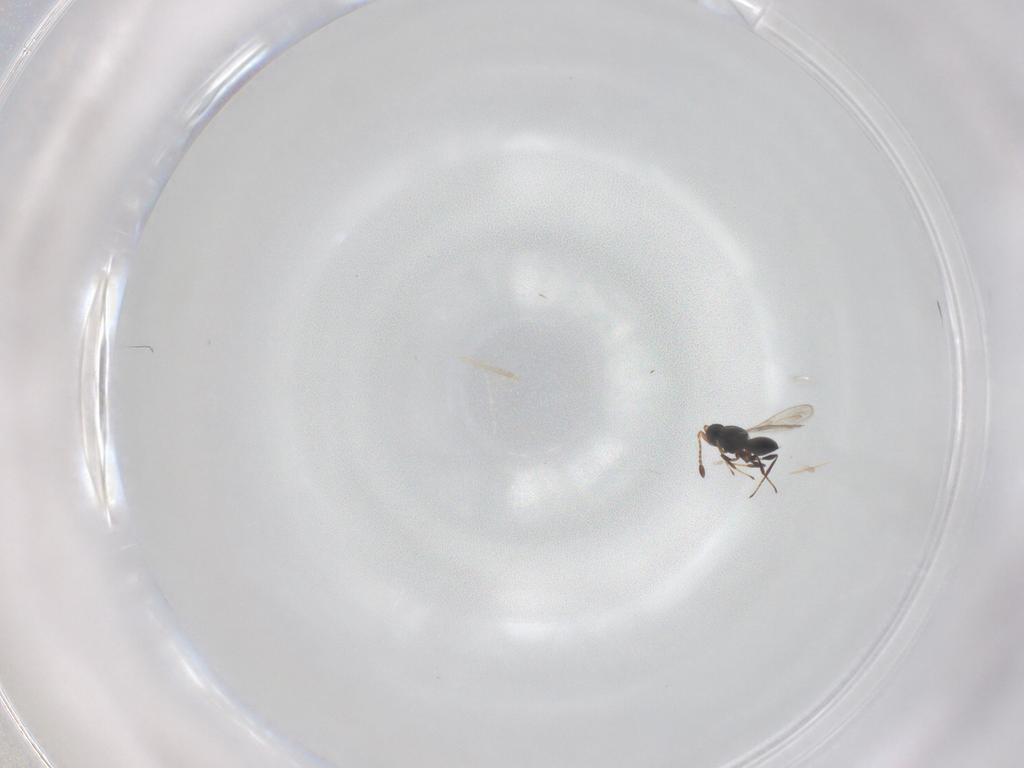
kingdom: Animalia
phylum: Arthropoda
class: Insecta
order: Hymenoptera
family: Platygastridae
